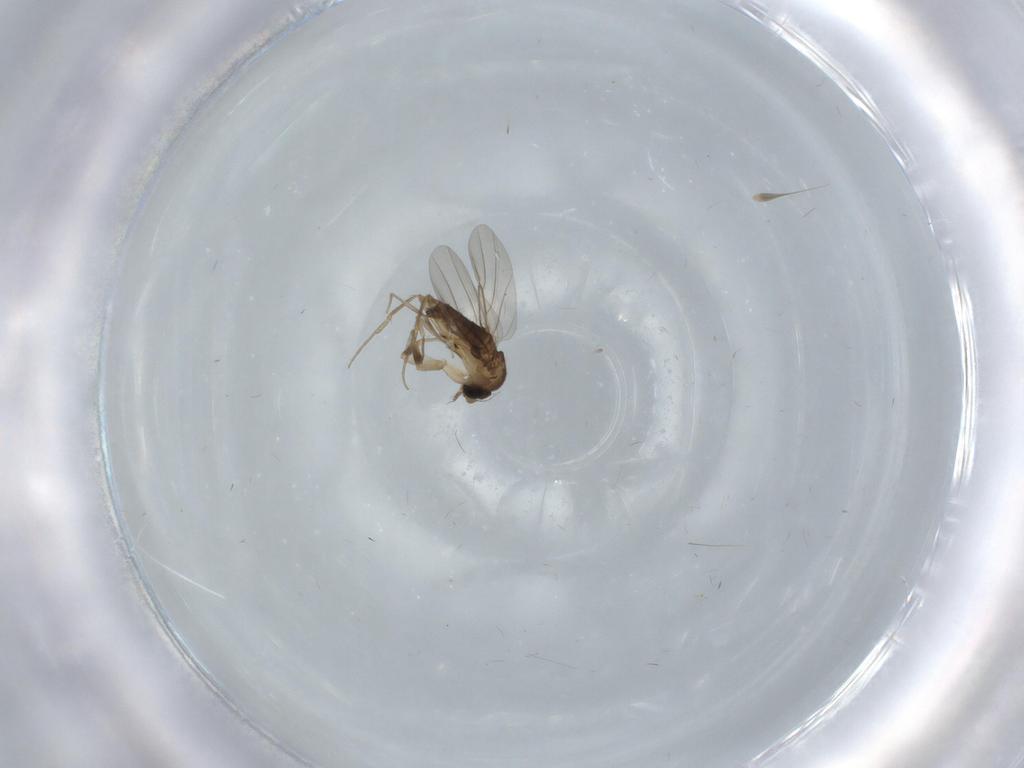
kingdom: Animalia
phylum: Arthropoda
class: Insecta
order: Diptera
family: Phoridae
